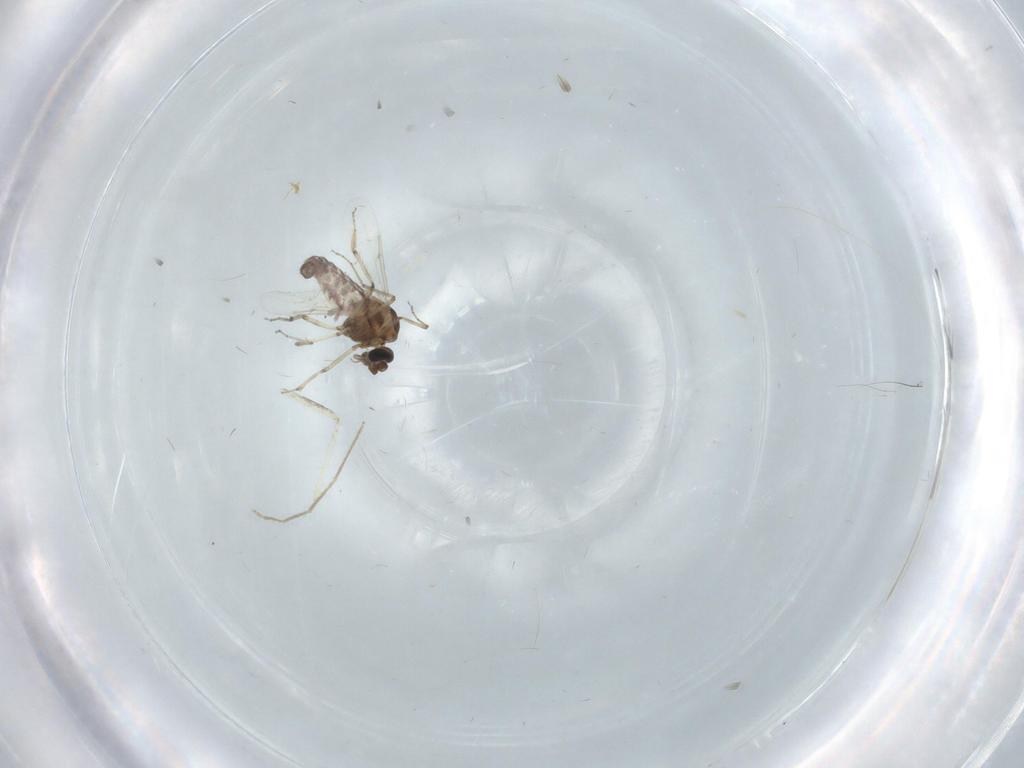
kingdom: Animalia
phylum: Arthropoda
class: Insecta
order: Diptera
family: Ceratopogonidae
